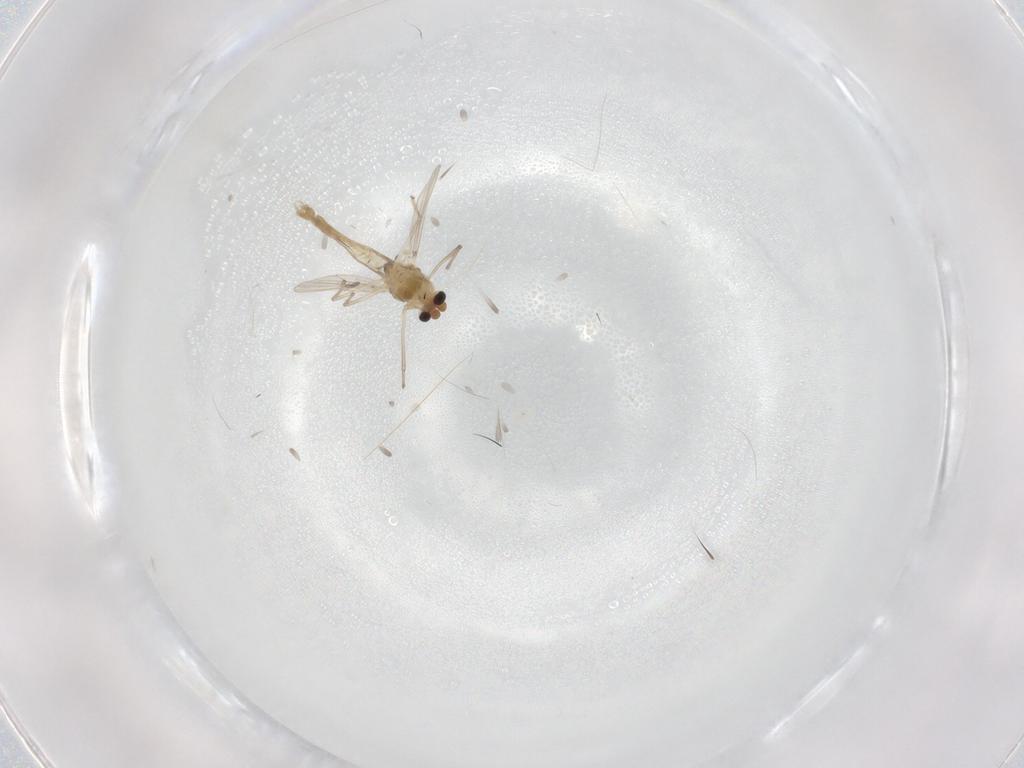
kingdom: Animalia
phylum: Arthropoda
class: Insecta
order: Diptera
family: Chironomidae
